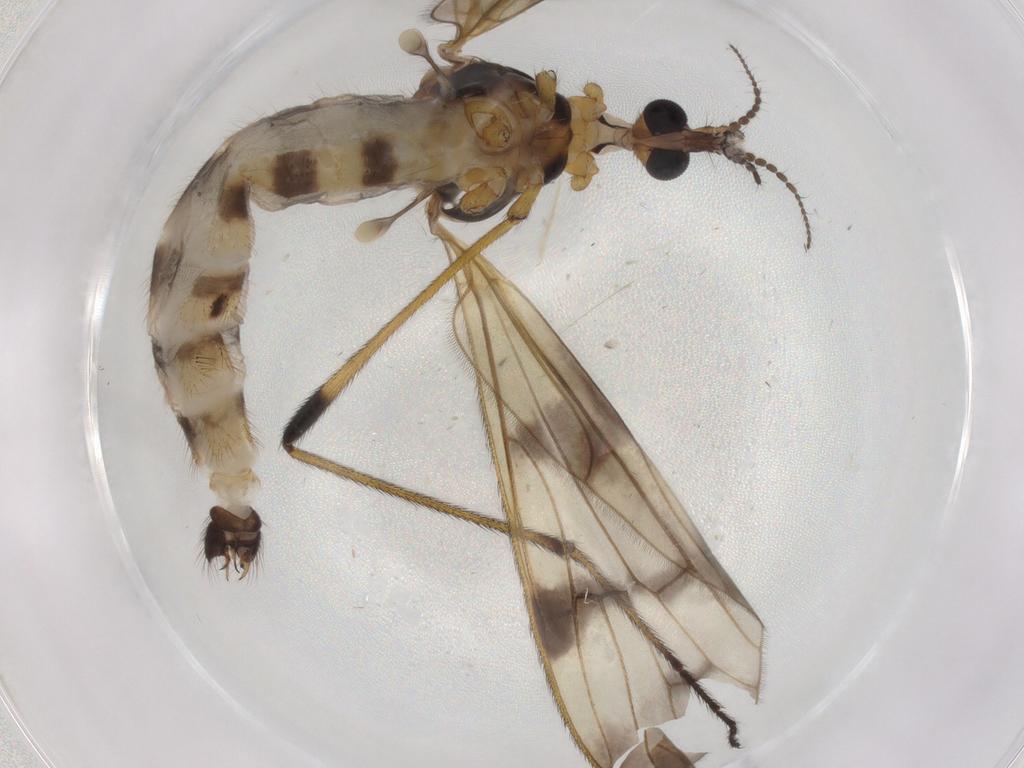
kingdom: Animalia
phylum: Arthropoda
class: Insecta
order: Diptera
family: Limoniidae
